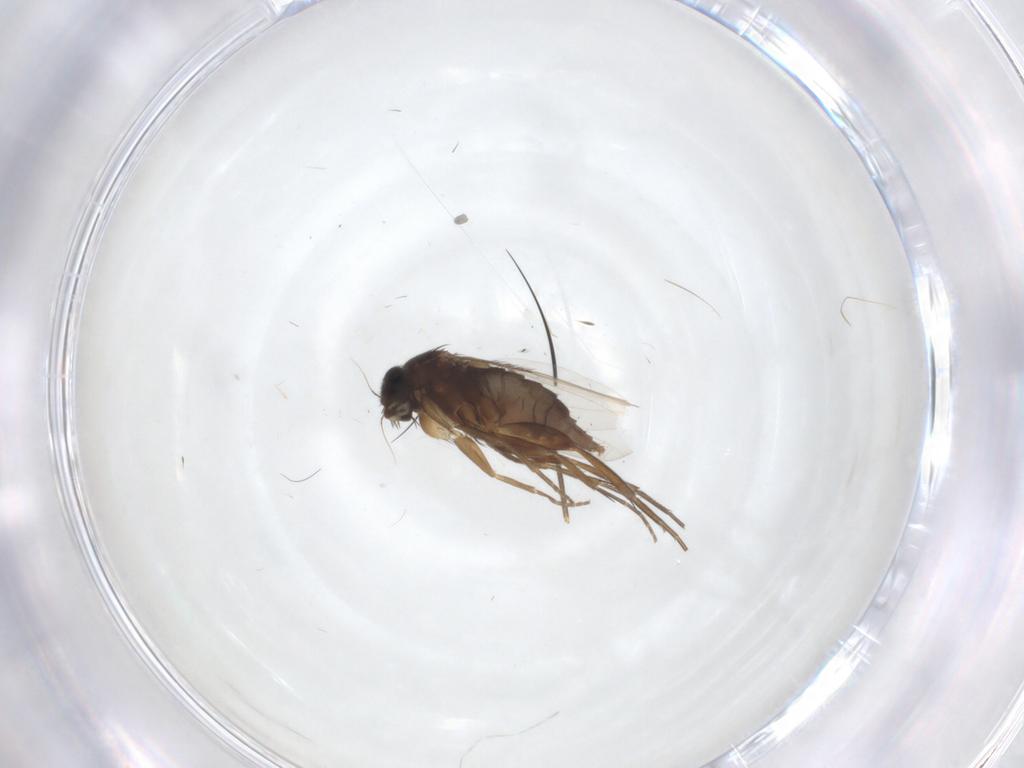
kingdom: Animalia
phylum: Arthropoda
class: Insecta
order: Diptera
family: Phoridae
